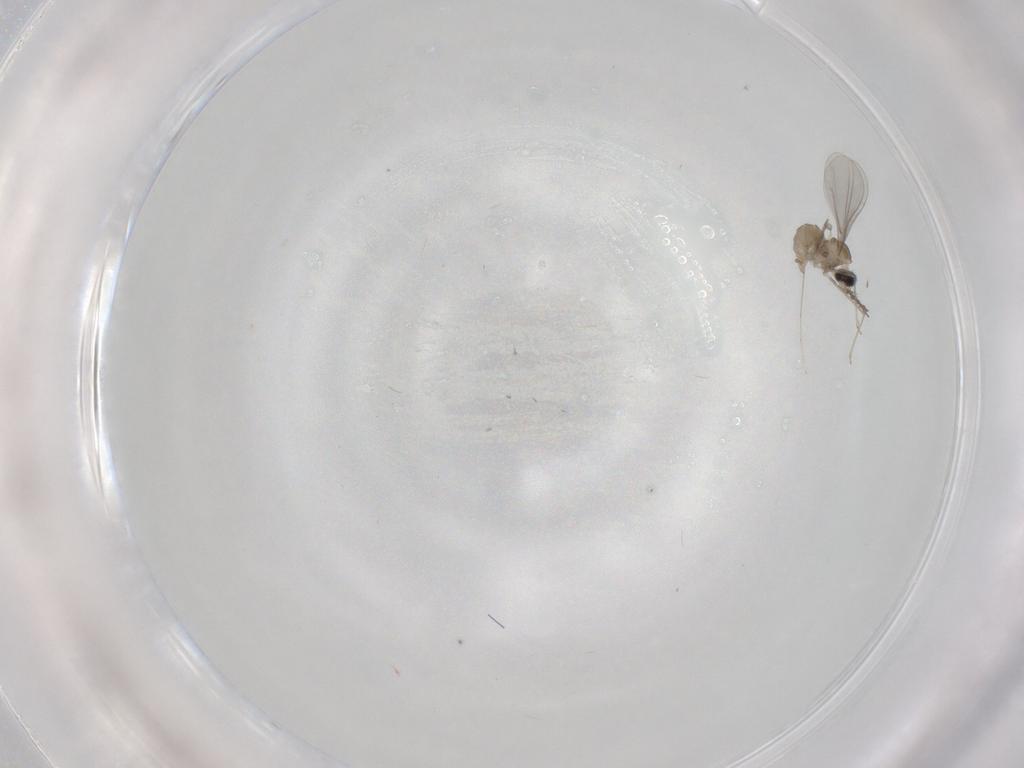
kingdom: Animalia
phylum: Arthropoda
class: Insecta
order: Diptera
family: Cecidomyiidae
